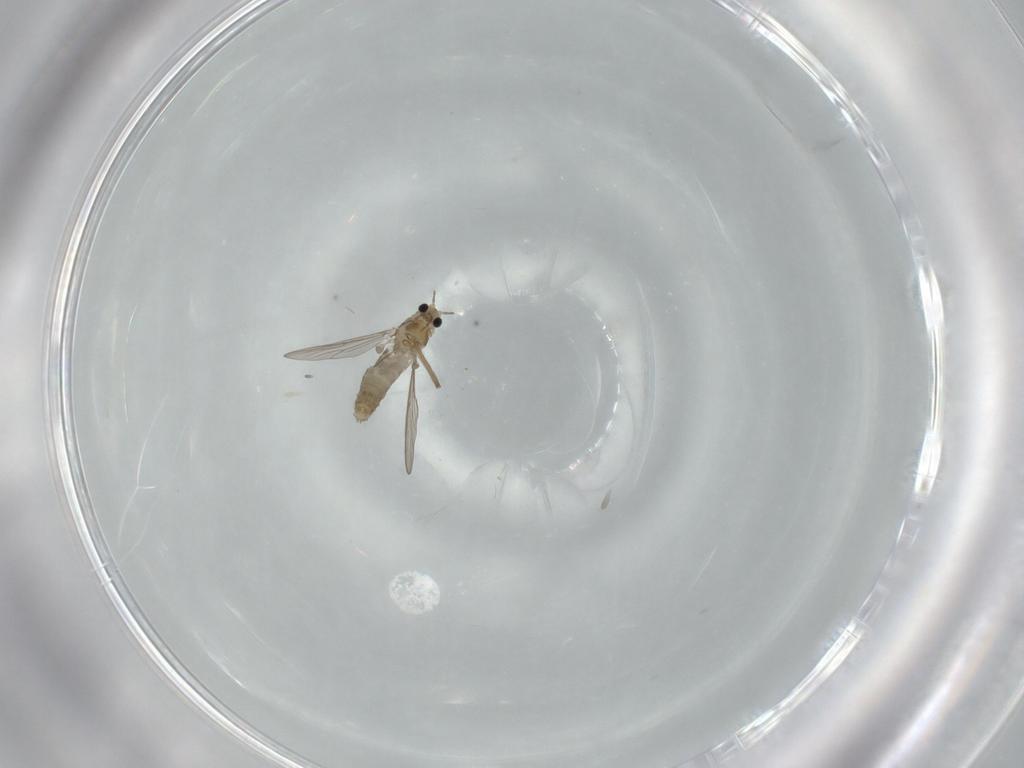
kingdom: Animalia
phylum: Arthropoda
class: Insecta
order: Diptera
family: Chironomidae
